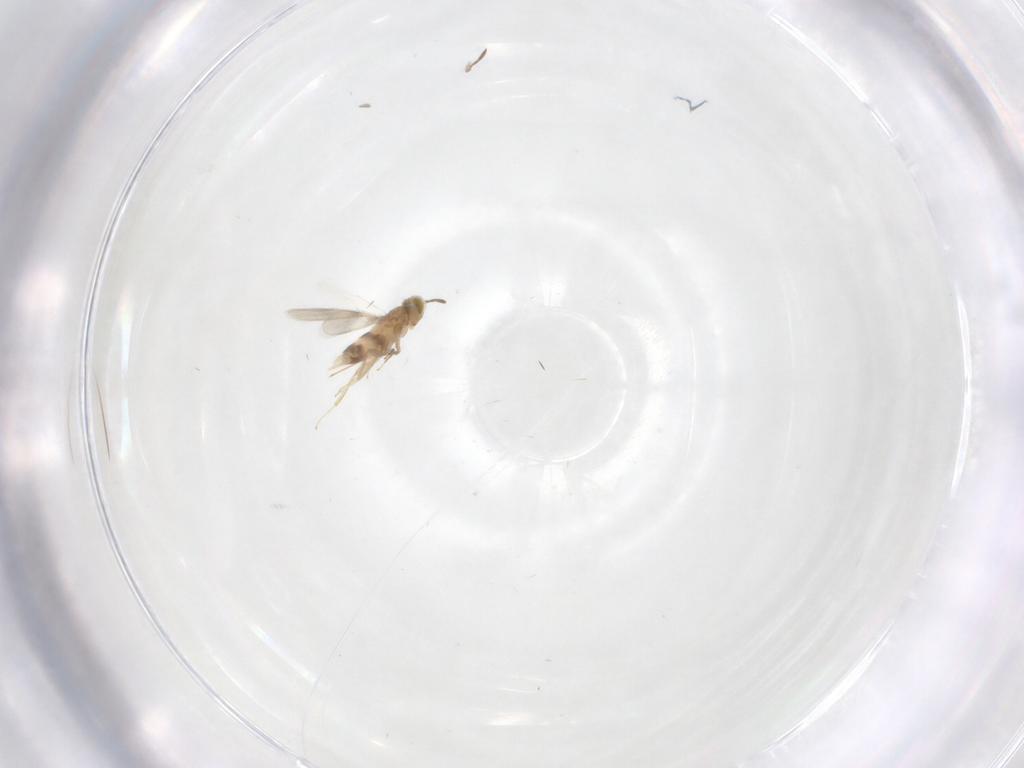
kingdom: Animalia
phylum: Arthropoda
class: Insecta
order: Hymenoptera
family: Aphelinidae
